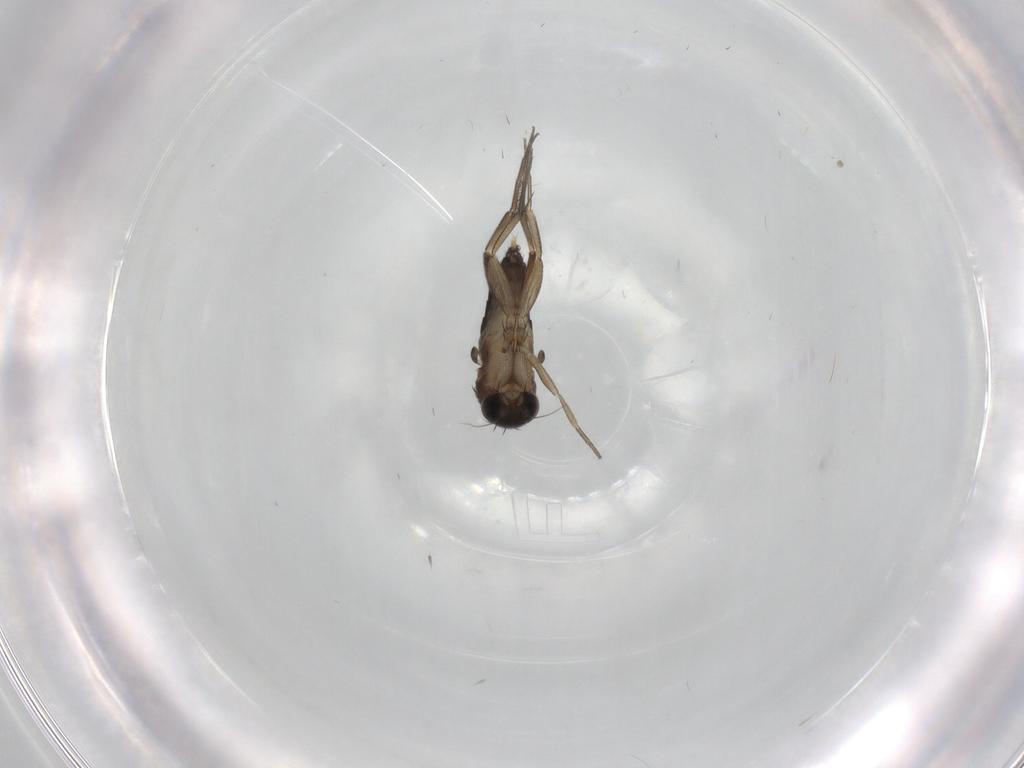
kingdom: Animalia
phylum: Arthropoda
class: Insecta
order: Diptera
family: Phoridae
